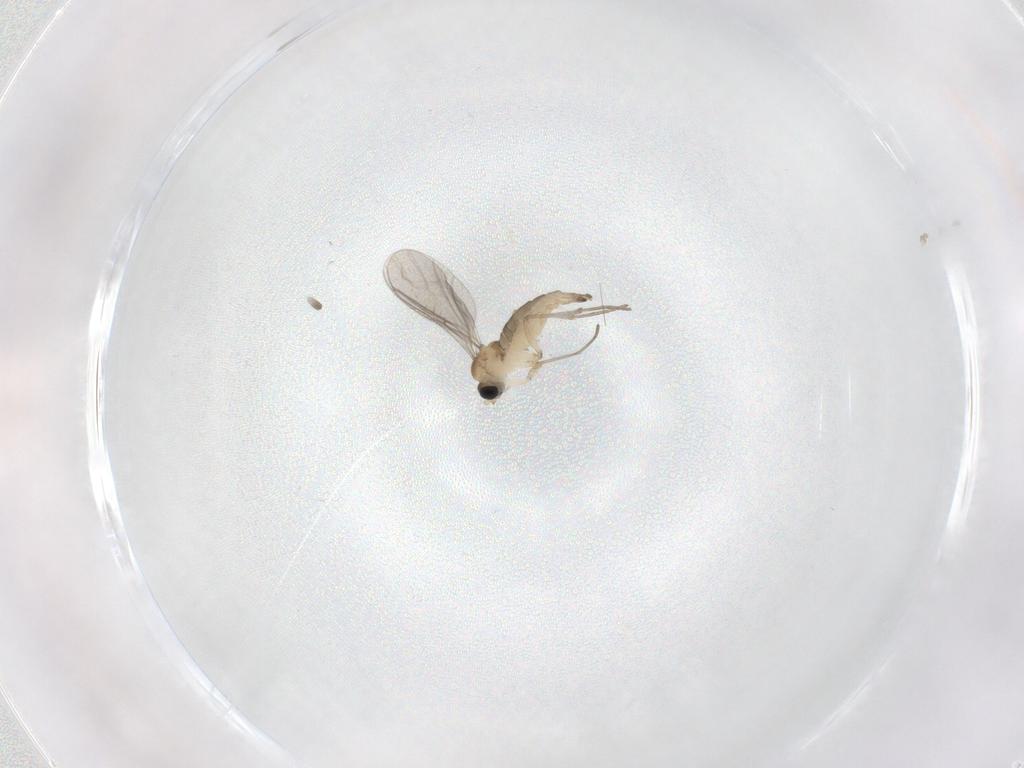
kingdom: Animalia
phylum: Arthropoda
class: Insecta
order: Diptera
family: Sciaridae
